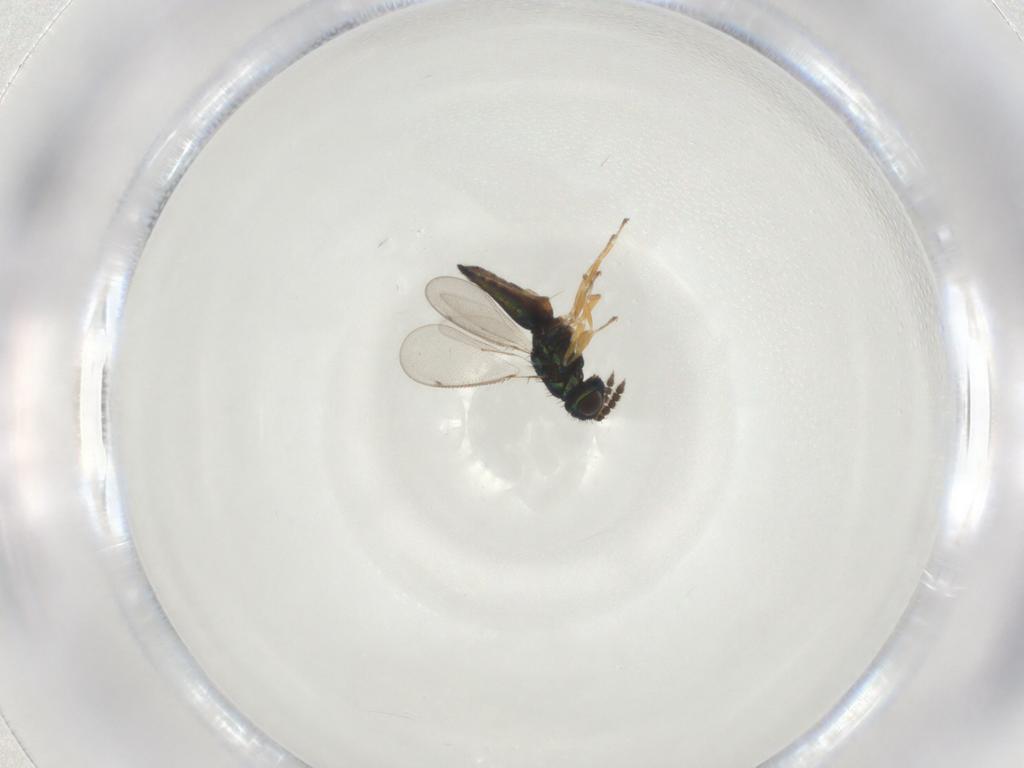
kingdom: Animalia
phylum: Arthropoda
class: Insecta
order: Hymenoptera
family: Eulophidae
